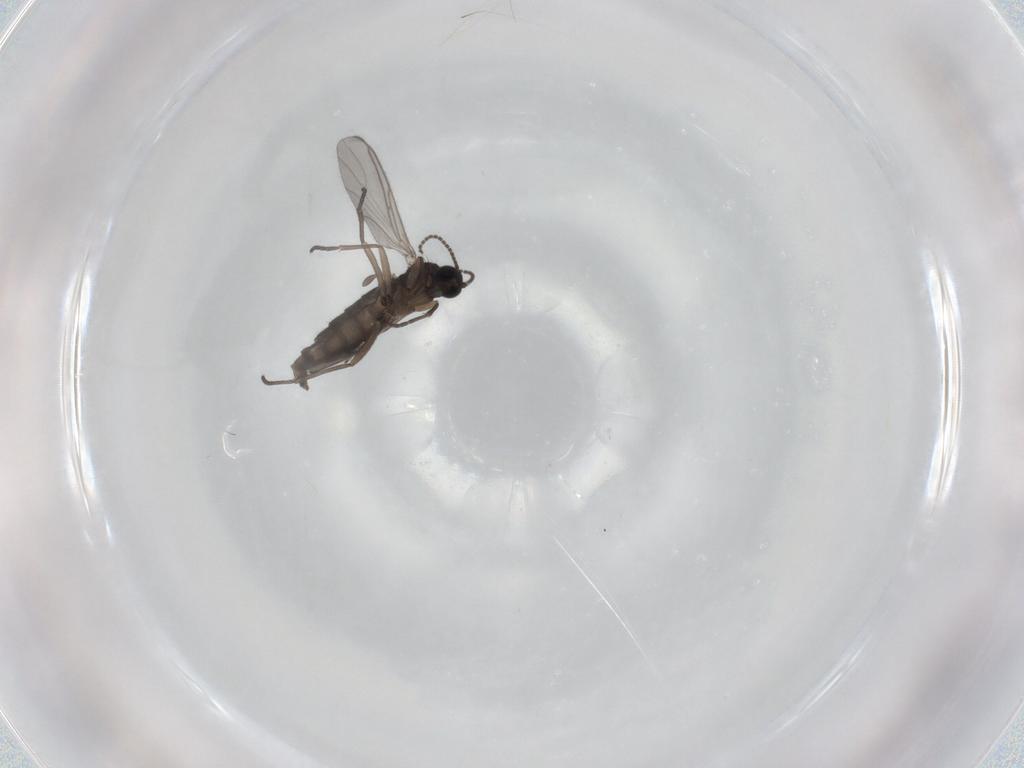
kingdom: Animalia
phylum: Arthropoda
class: Insecta
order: Diptera
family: Sciaridae
